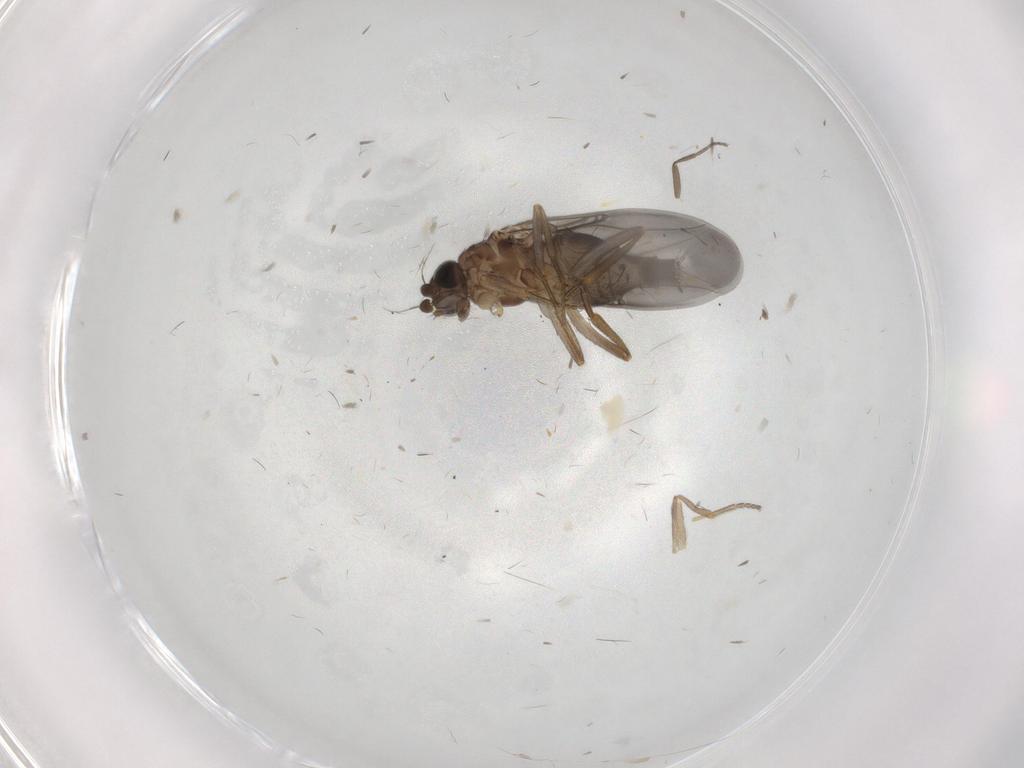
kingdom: Animalia
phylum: Arthropoda
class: Insecta
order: Diptera
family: Phoridae
